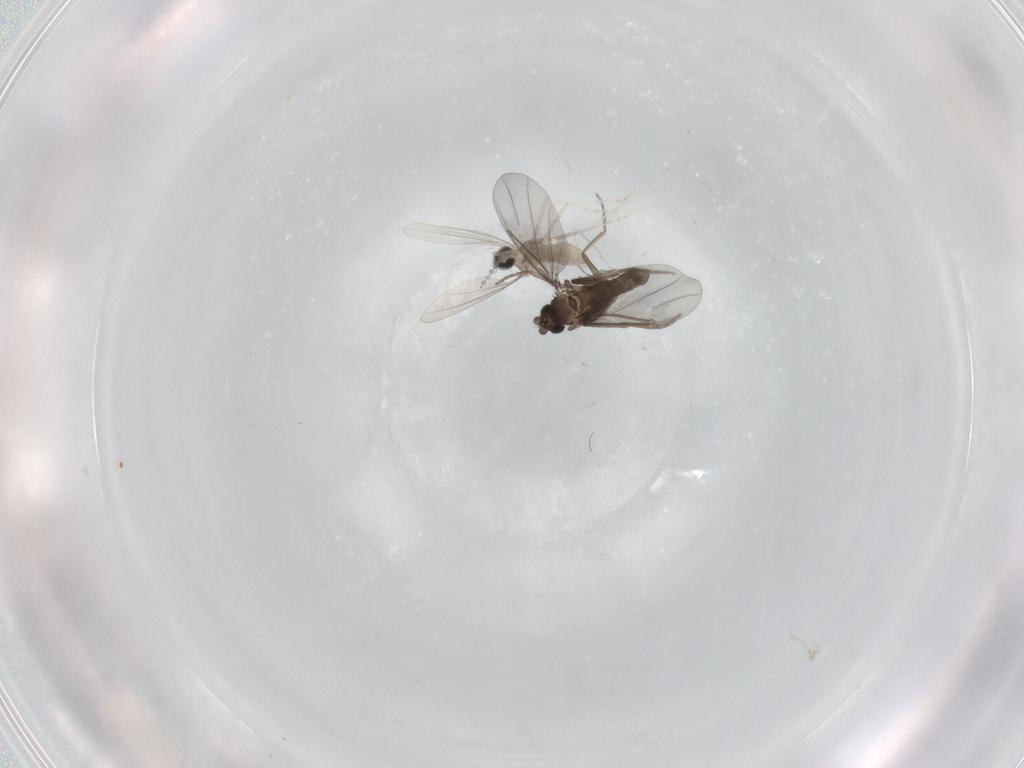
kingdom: Animalia
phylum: Arthropoda
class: Insecta
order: Diptera
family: Cecidomyiidae
